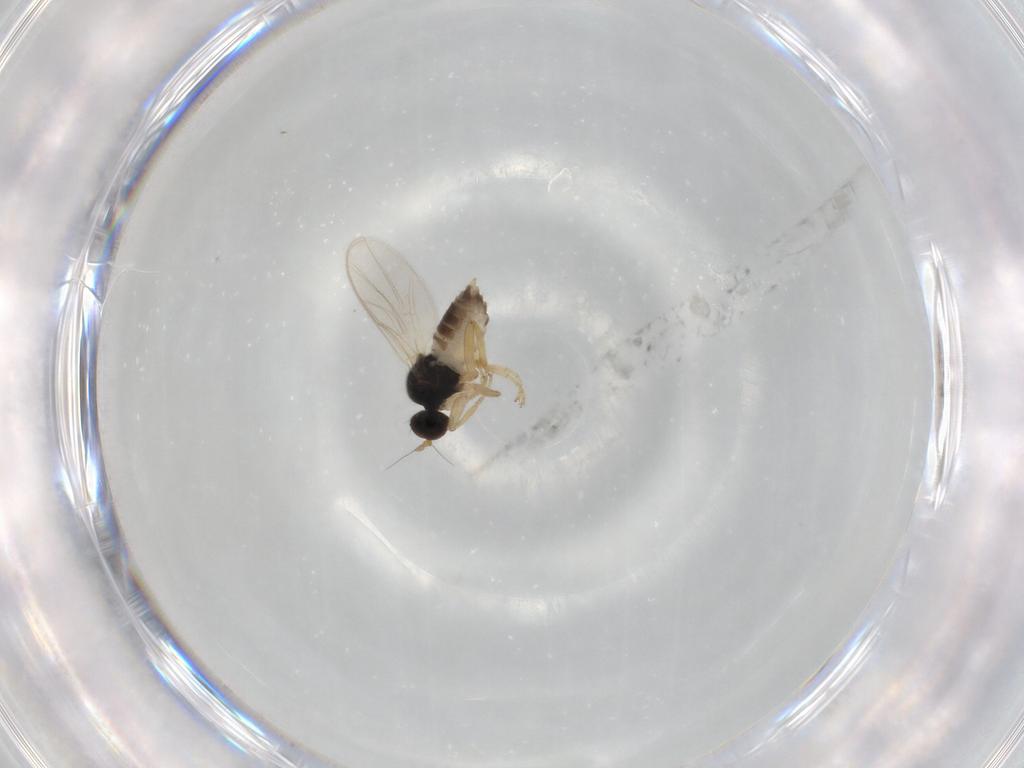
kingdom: Animalia
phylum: Arthropoda
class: Insecta
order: Diptera
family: Hybotidae
